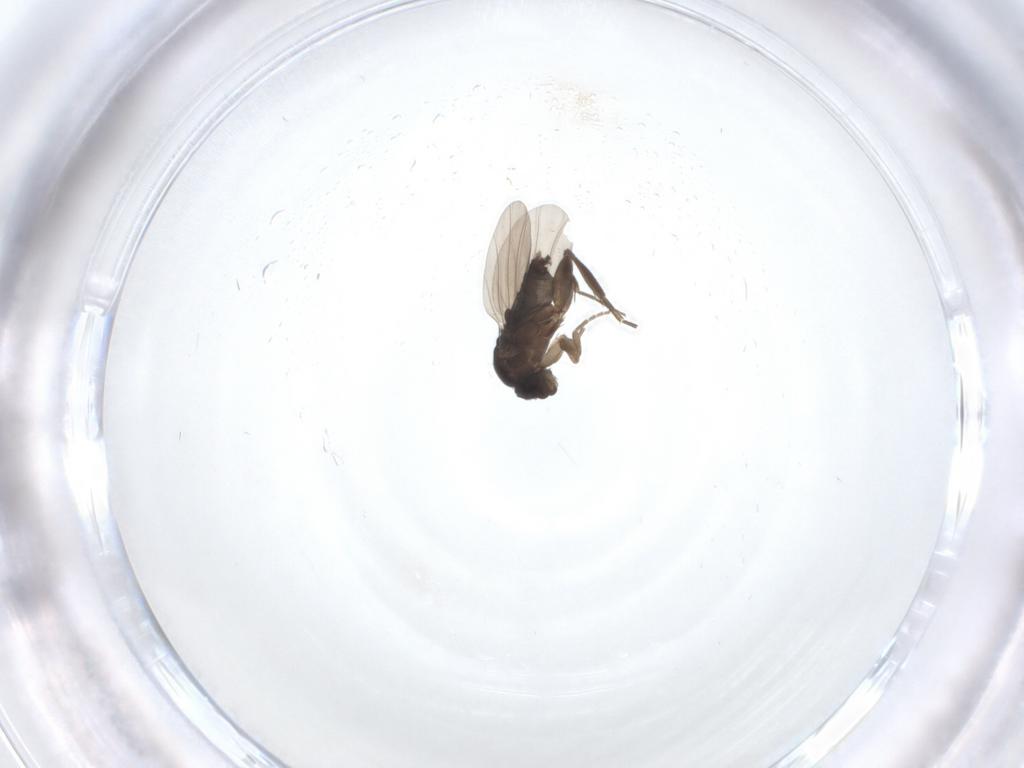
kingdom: Animalia
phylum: Arthropoda
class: Insecta
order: Diptera
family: Phoridae
